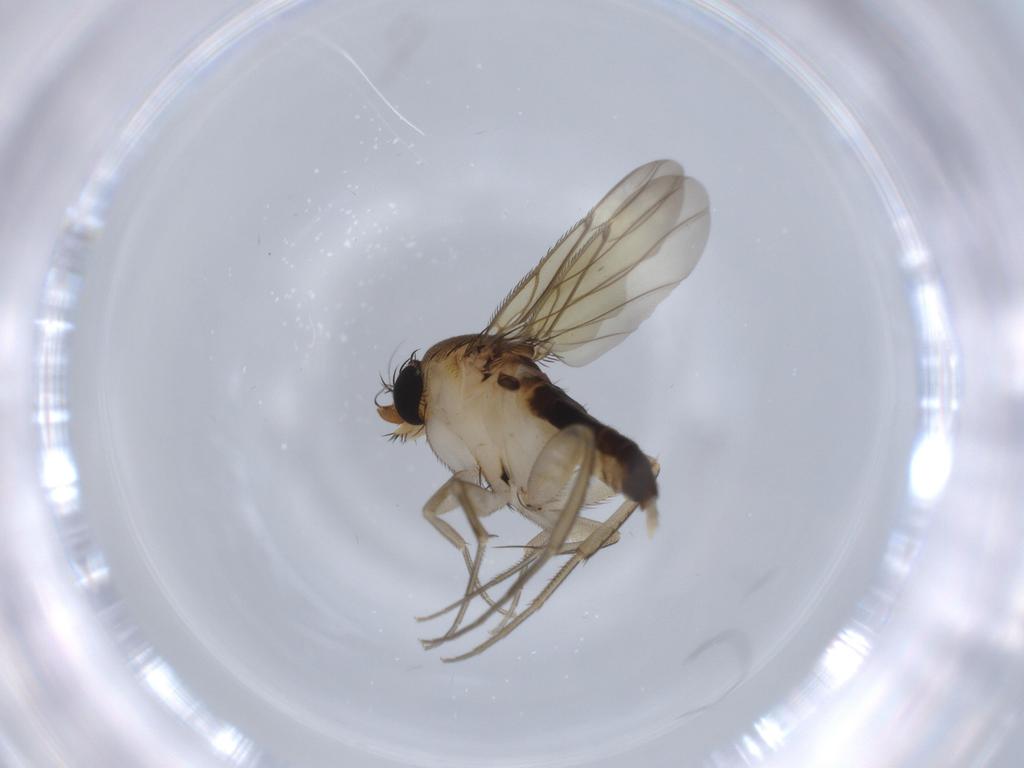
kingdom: Animalia
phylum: Arthropoda
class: Insecta
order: Diptera
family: Phoridae
